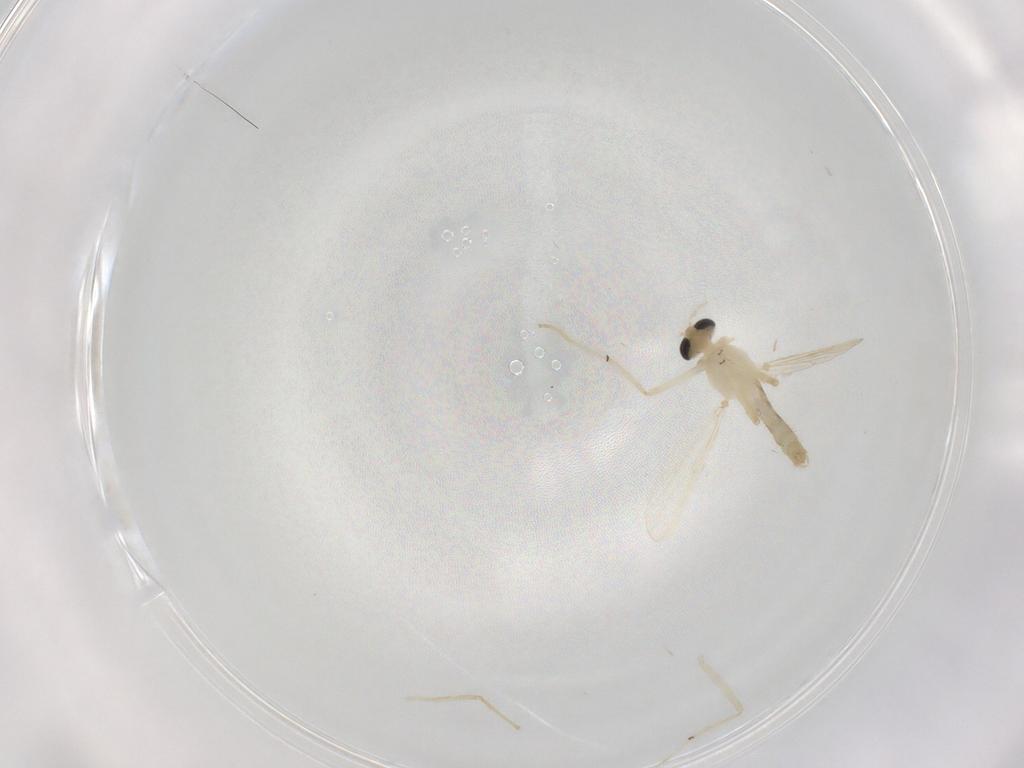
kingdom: Animalia
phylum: Arthropoda
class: Insecta
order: Diptera
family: Chironomidae
